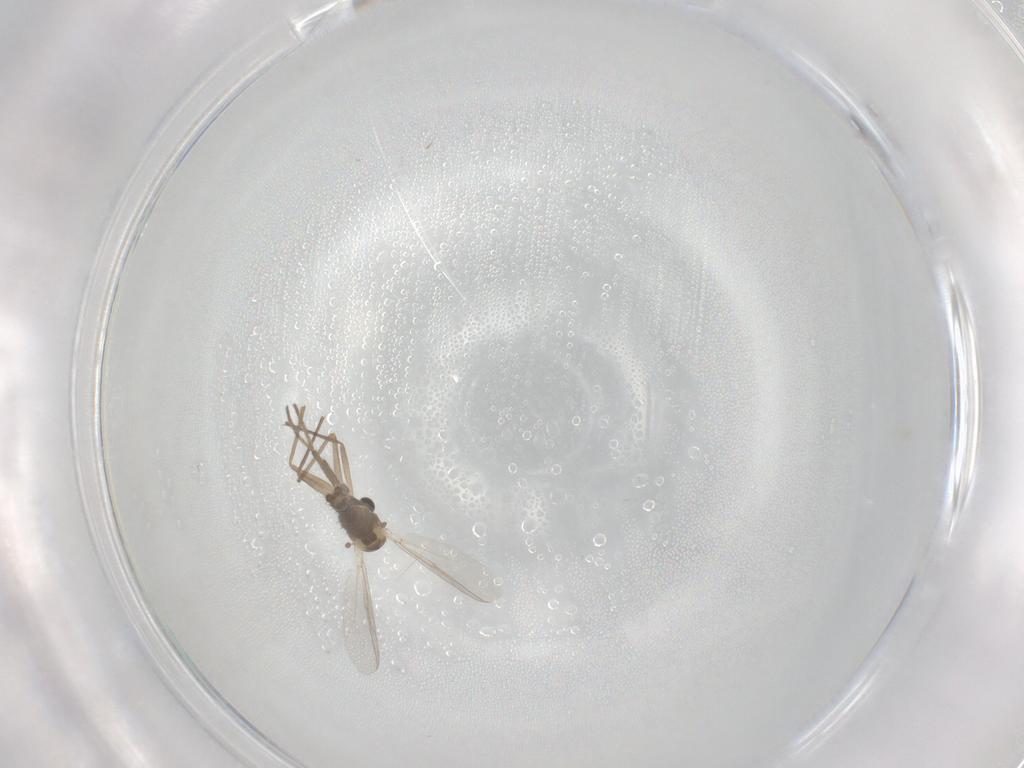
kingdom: Animalia
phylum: Arthropoda
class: Insecta
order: Diptera
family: Chironomidae
